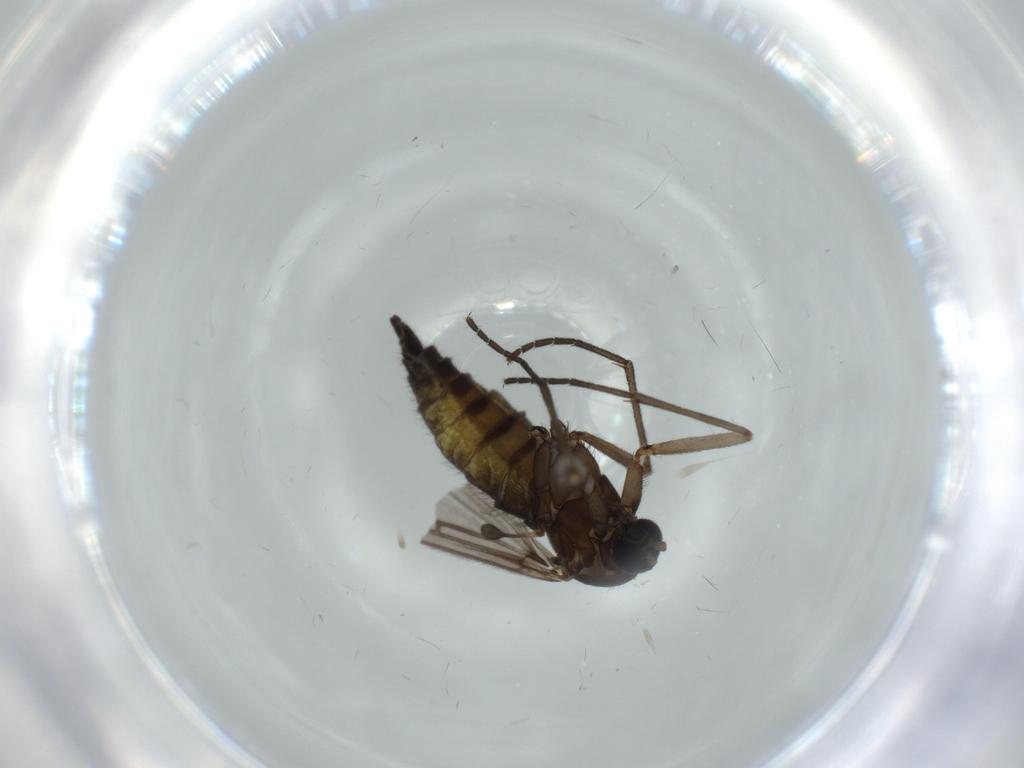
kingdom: Animalia
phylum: Arthropoda
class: Insecta
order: Diptera
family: Sciaridae
